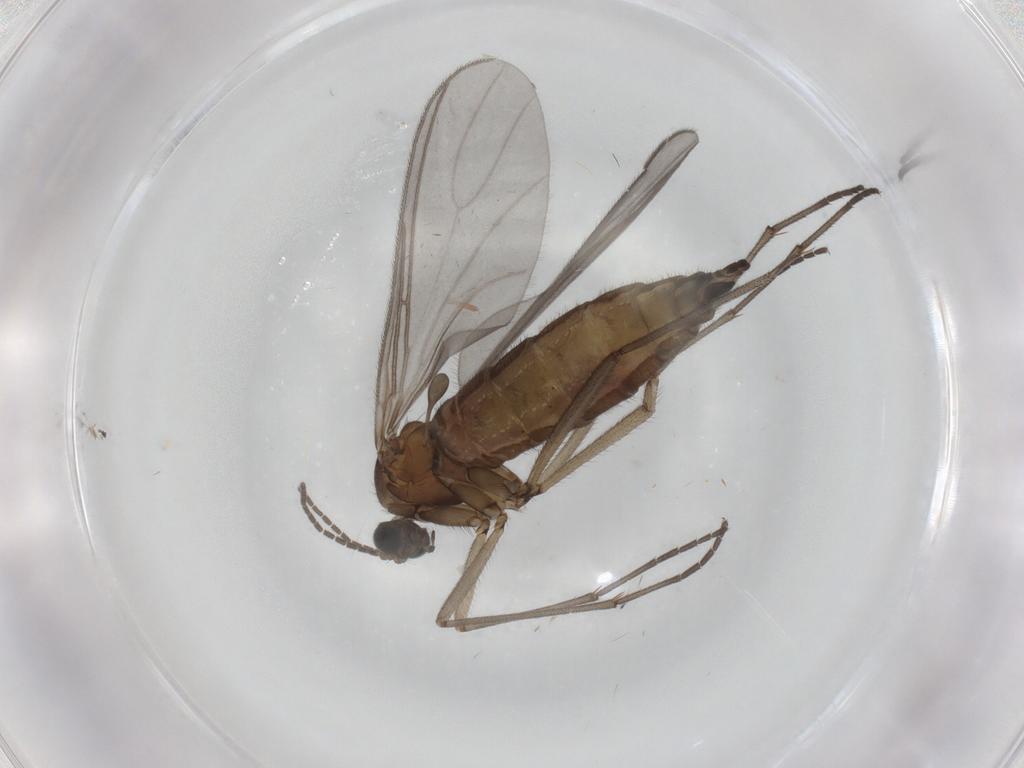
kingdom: Animalia
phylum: Arthropoda
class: Insecta
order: Diptera
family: Sciaridae
